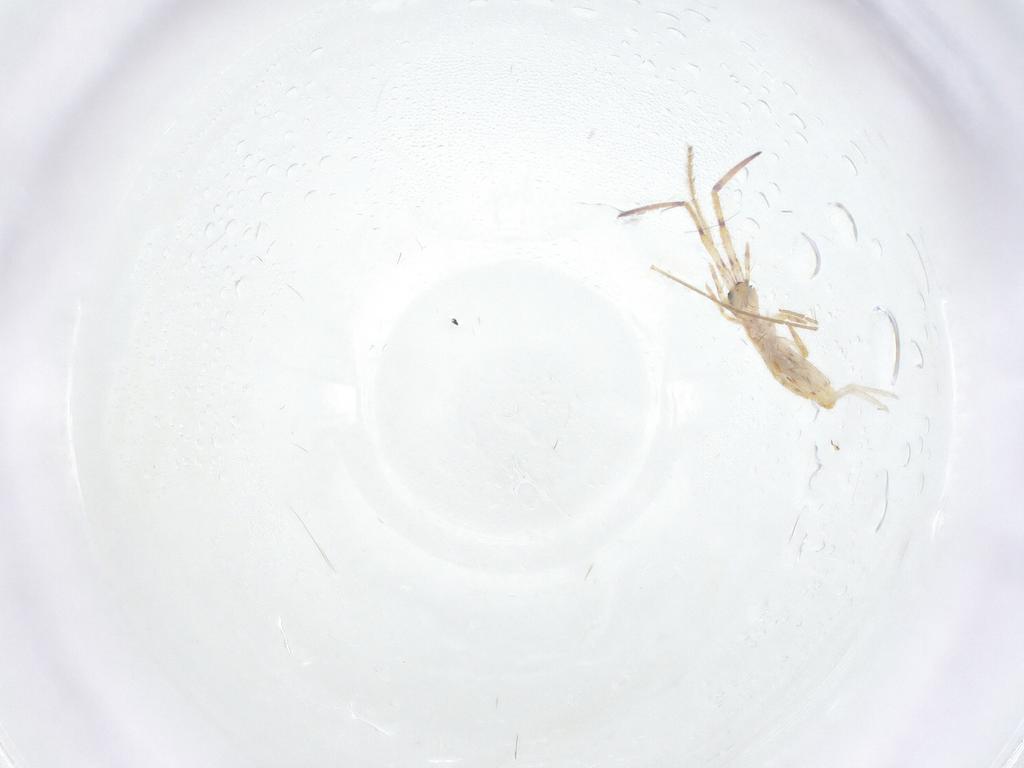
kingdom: Animalia
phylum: Arthropoda
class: Collembola
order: Entomobryomorpha
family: Entomobryidae
